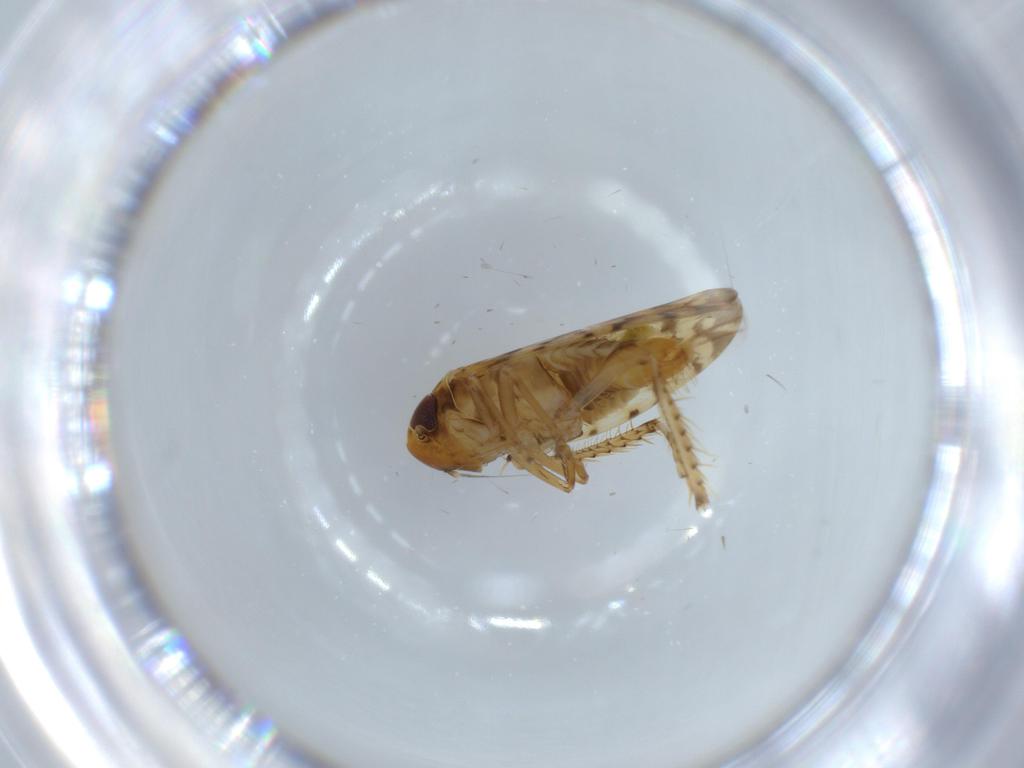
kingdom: Animalia
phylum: Arthropoda
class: Insecta
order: Hemiptera
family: Cicadellidae
